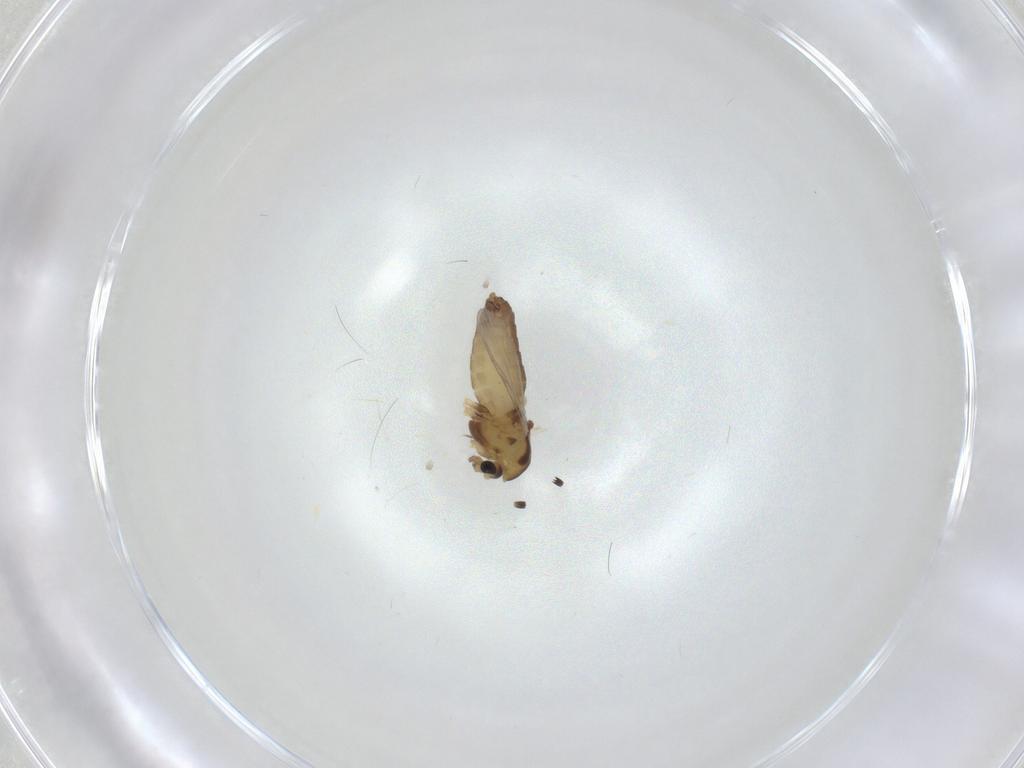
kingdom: Animalia
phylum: Arthropoda
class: Insecta
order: Diptera
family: Chironomidae
